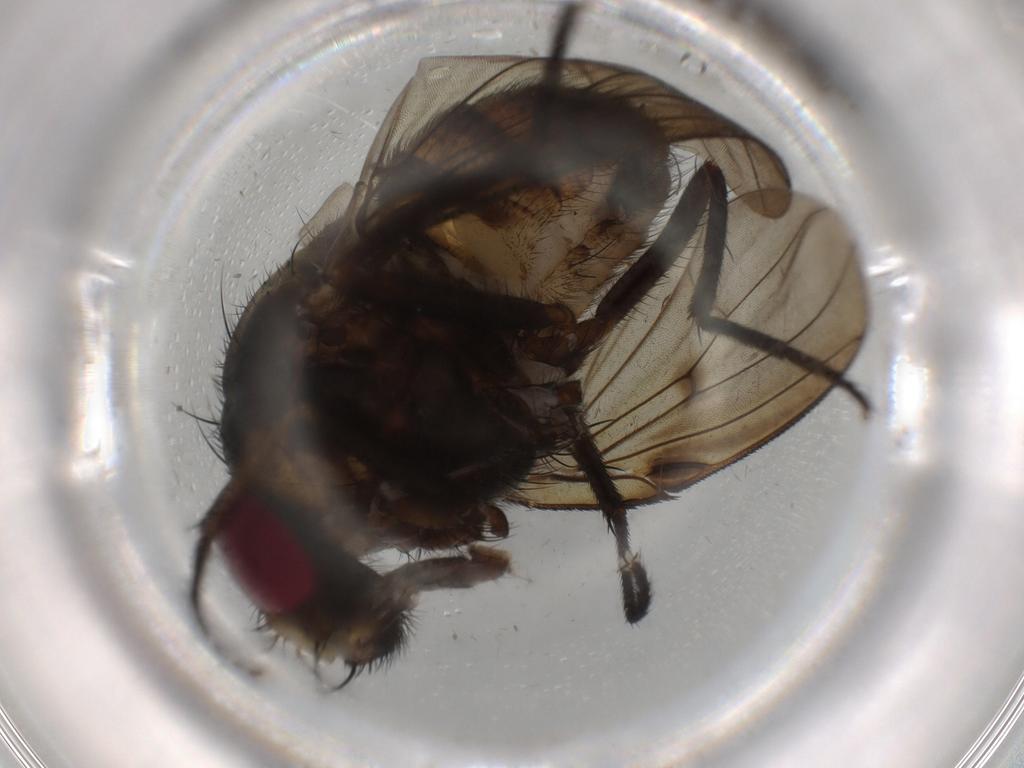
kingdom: Animalia
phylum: Arthropoda
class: Insecta
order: Diptera
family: Muscidae
